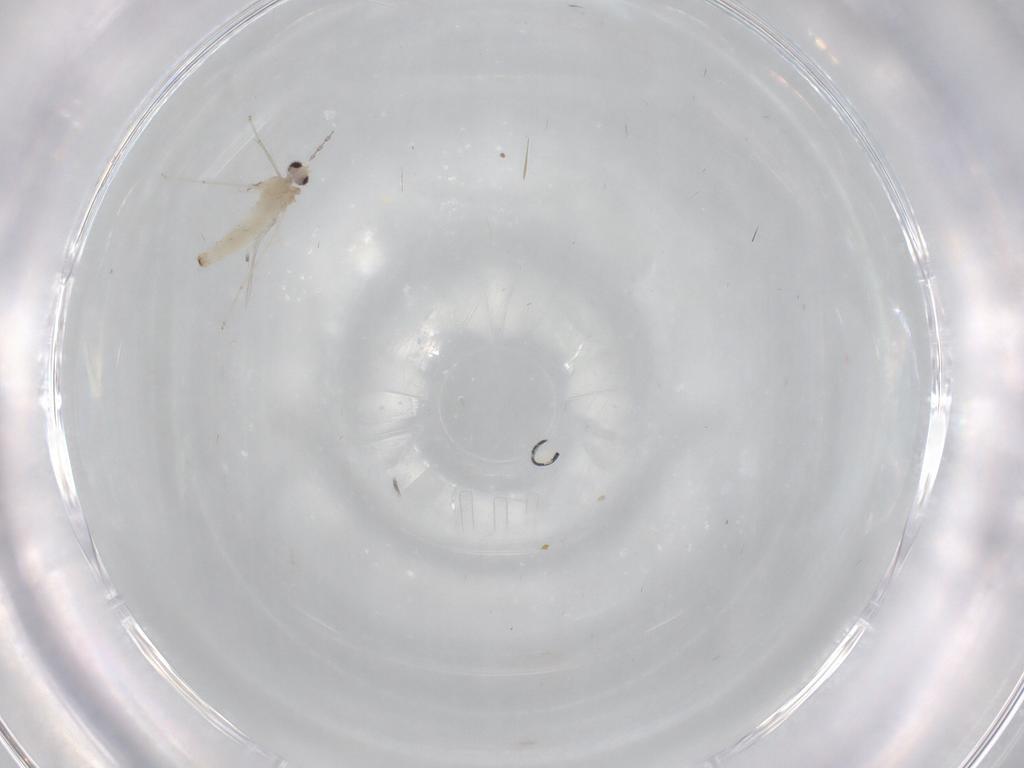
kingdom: Animalia
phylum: Arthropoda
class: Insecta
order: Diptera
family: Cecidomyiidae
